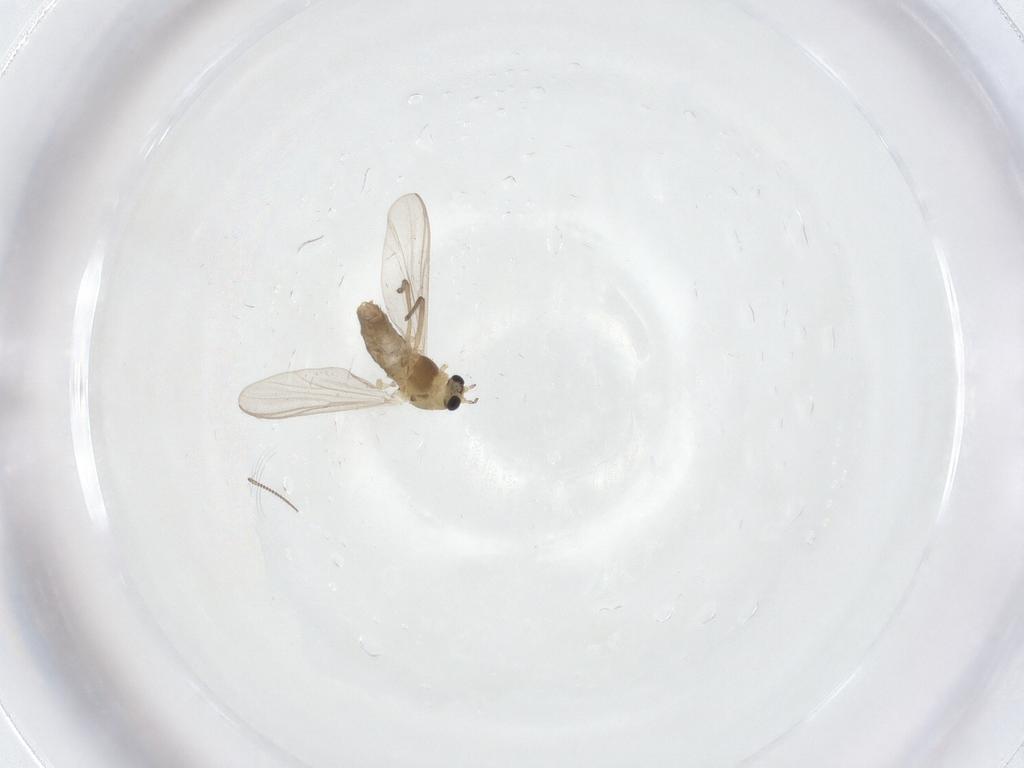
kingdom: Animalia
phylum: Arthropoda
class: Insecta
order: Diptera
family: Chironomidae
